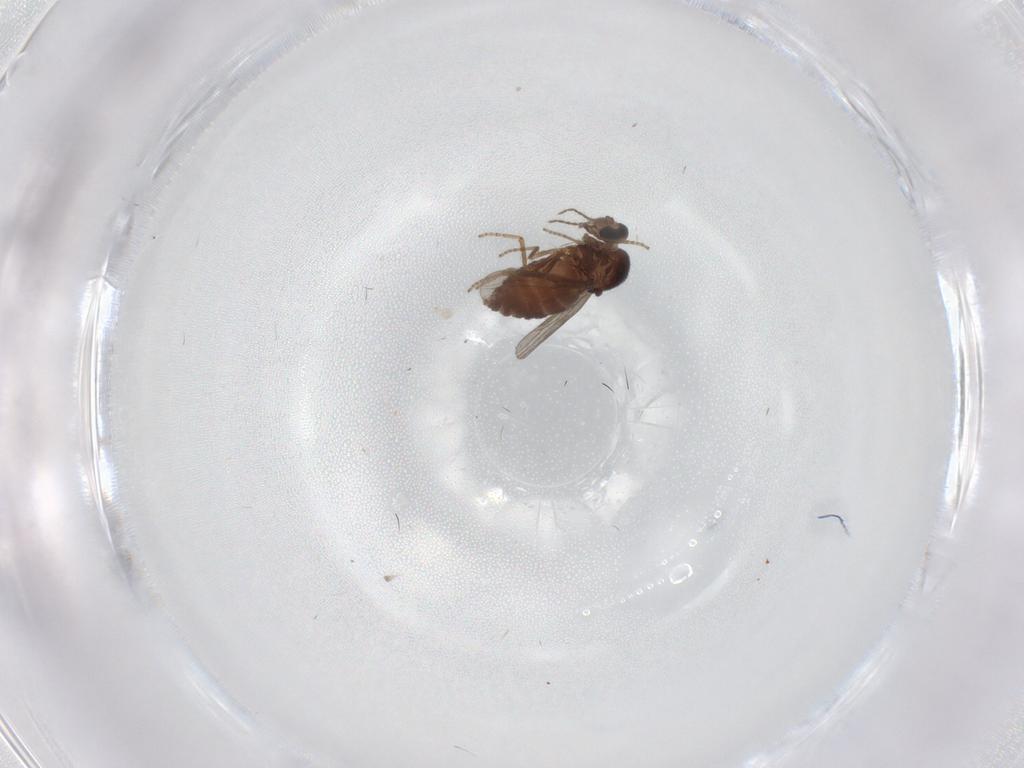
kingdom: Animalia
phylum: Arthropoda
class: Insecta
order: Diptera
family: Ceratopogonidae
